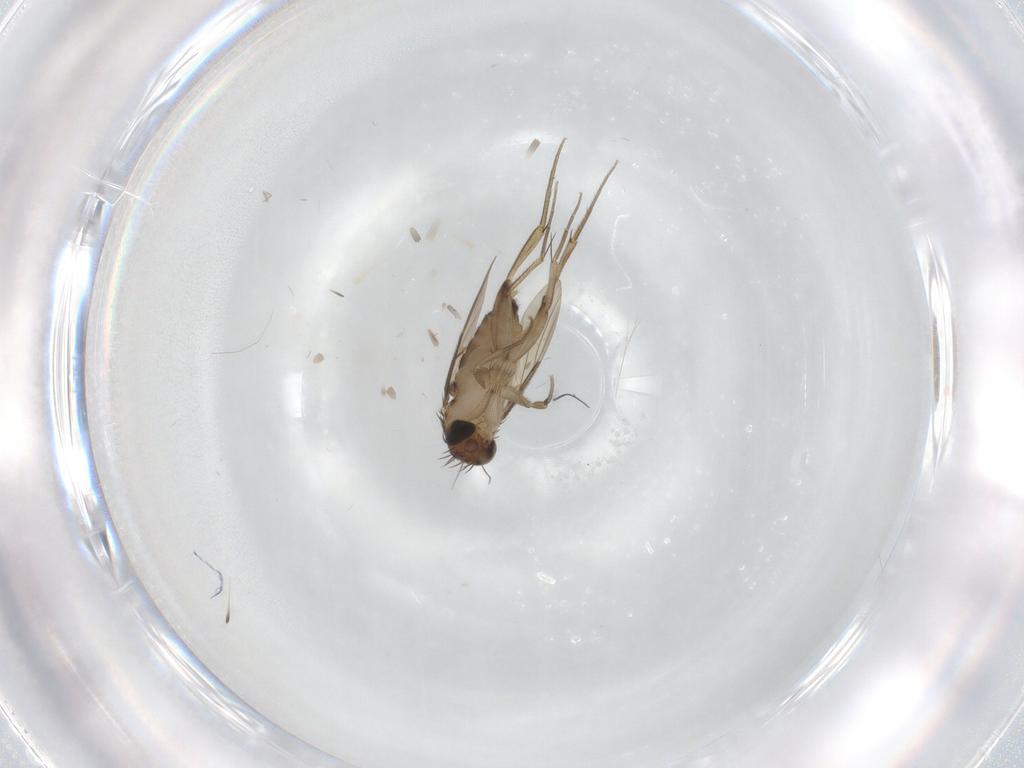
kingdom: Animalia
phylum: Arthropoda
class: Insecta
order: Diptera
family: Phoridae
